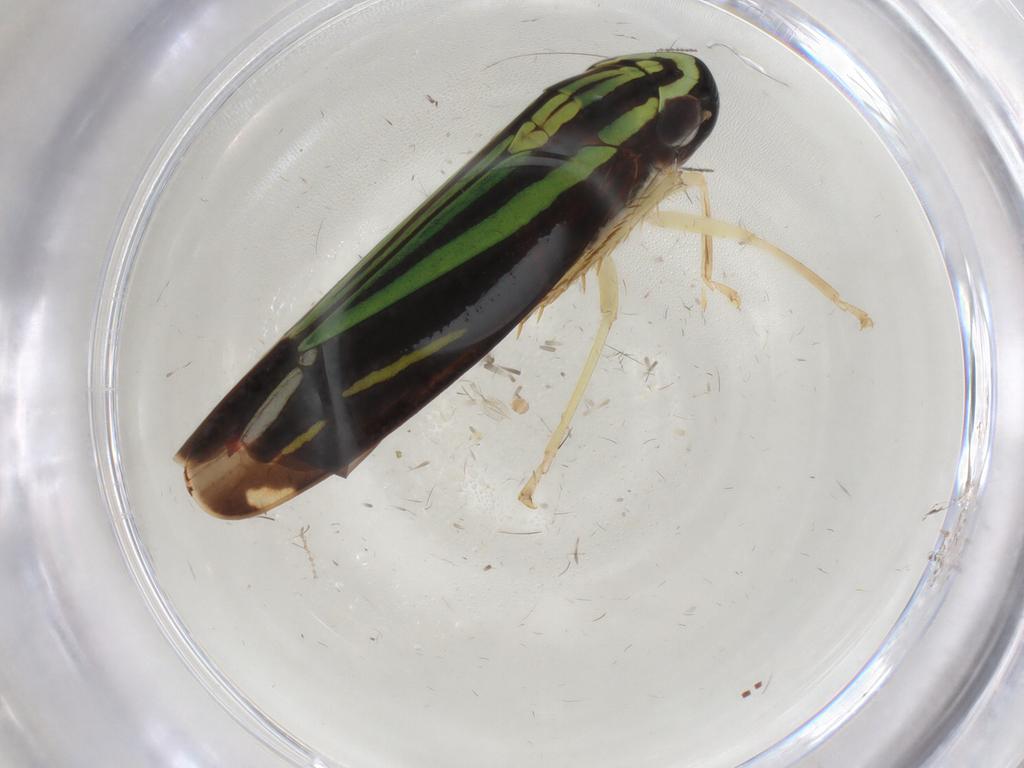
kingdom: Animalia
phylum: Arthropoda
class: Insecta
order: Hemiptera
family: Cicadellidae
